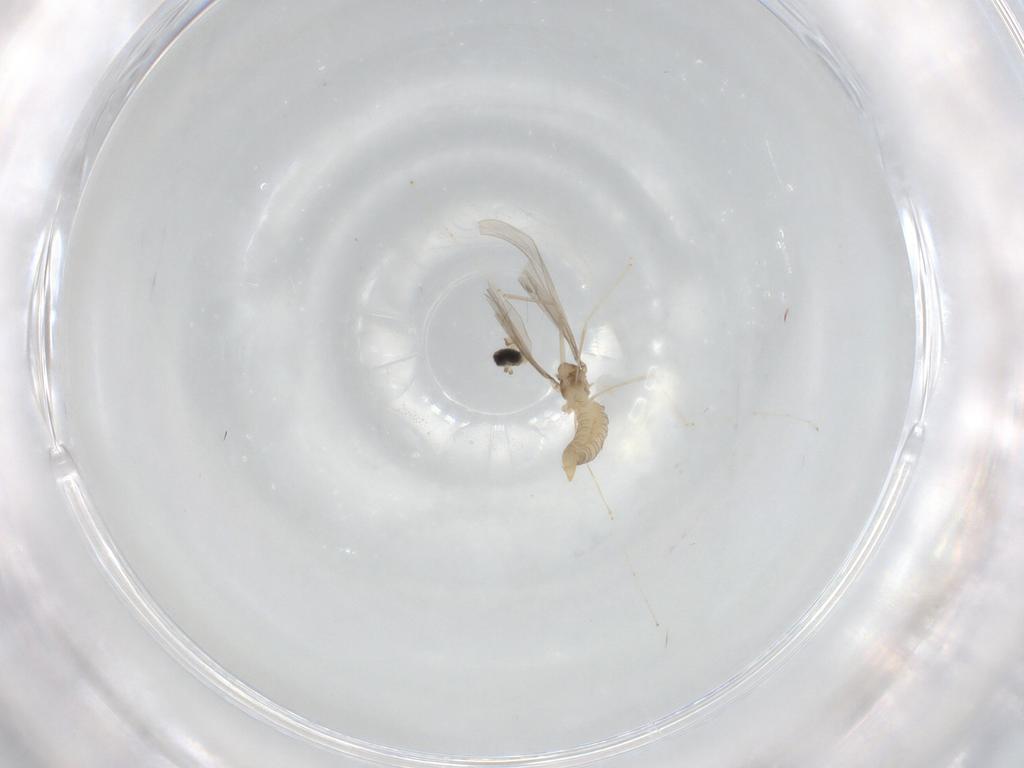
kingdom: Animalia
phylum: Arthropoda
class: Insecta
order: Diptera
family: Cecidomyiidae
